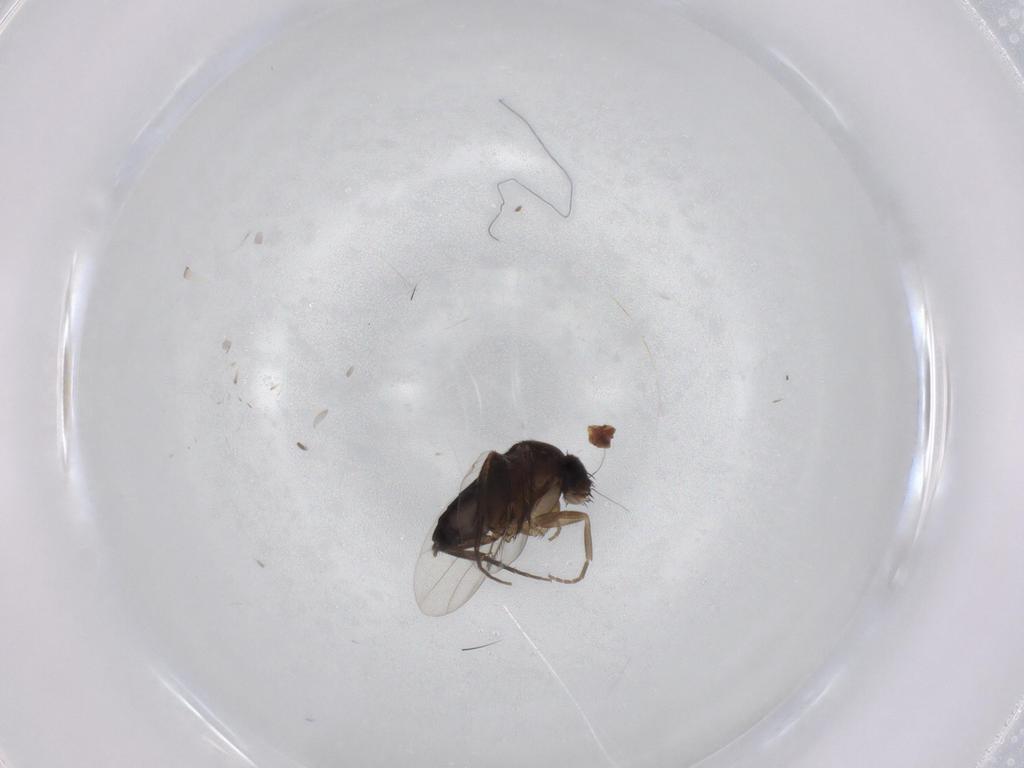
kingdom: Animalia
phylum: Arthropoda
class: Insecta
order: Diptera
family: Phoridae
